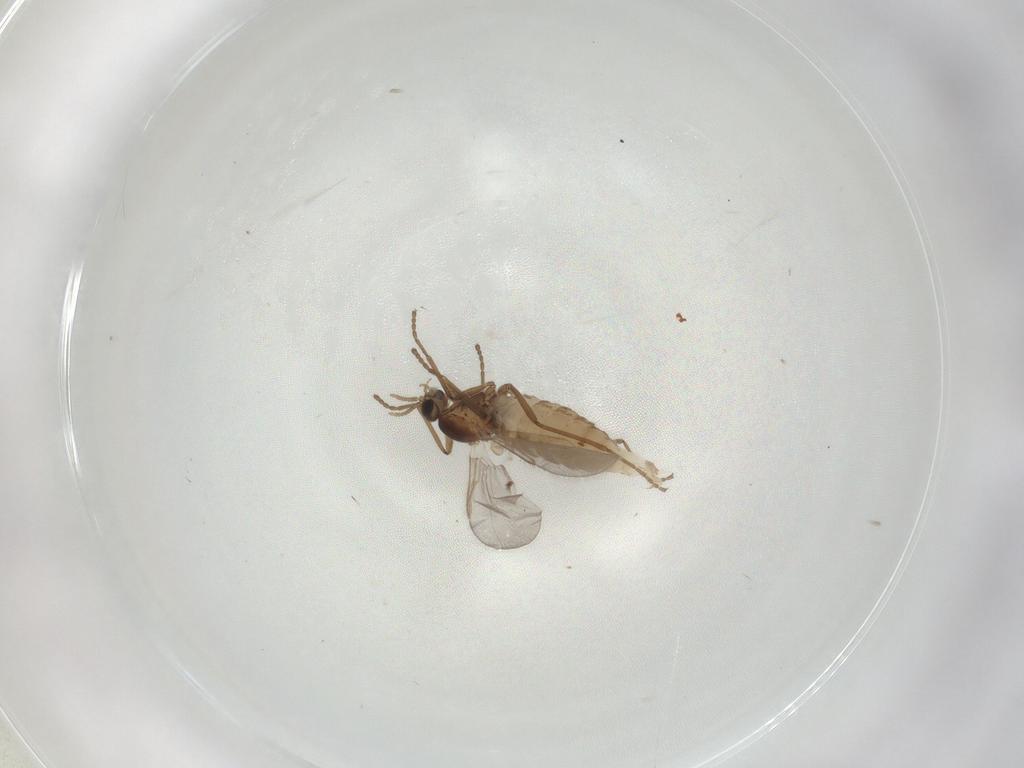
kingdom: Animalia
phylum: Arthropoda
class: Insecta
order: Diptera
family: Cecidomyiidae
